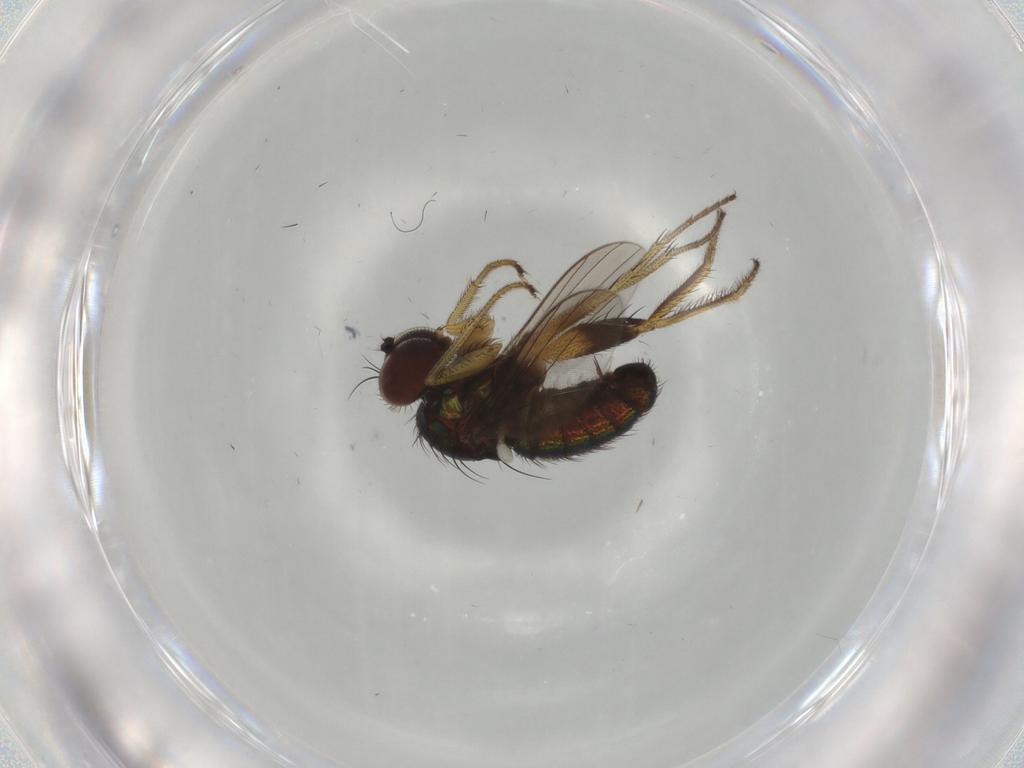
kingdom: Animalia
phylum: Arthropoda
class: Insecta
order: Diptera
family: Dolichopodidae
